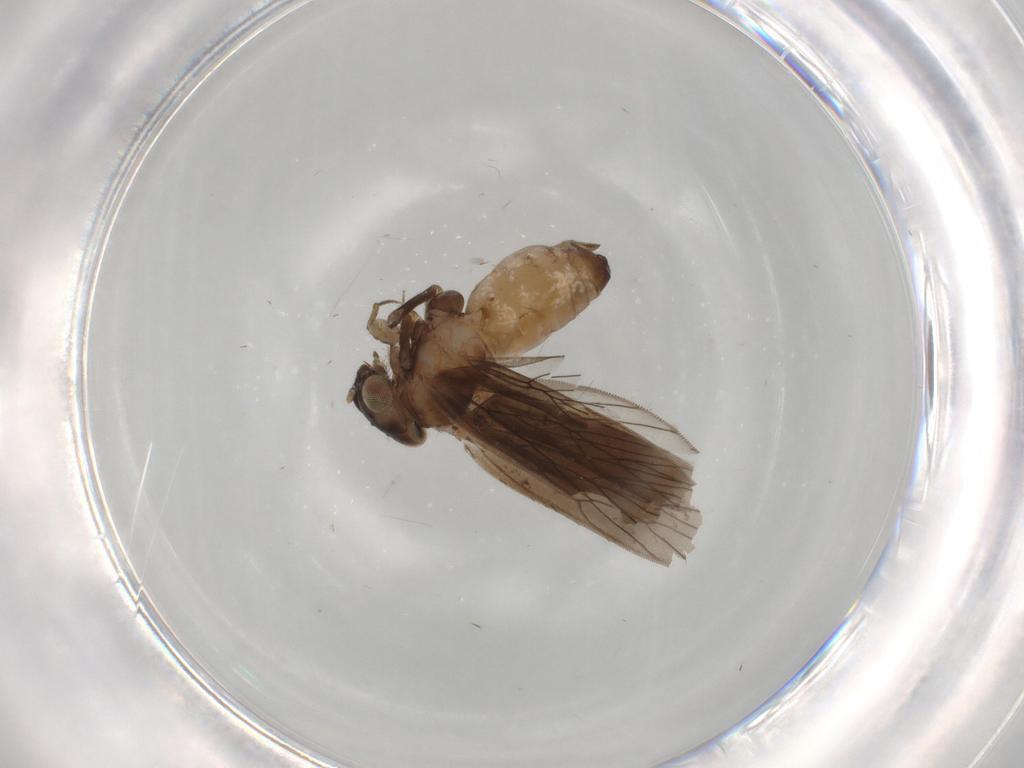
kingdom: Animalia
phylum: Arthropoda
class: Insecta
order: Psocodea
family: Lepidopsocidae
